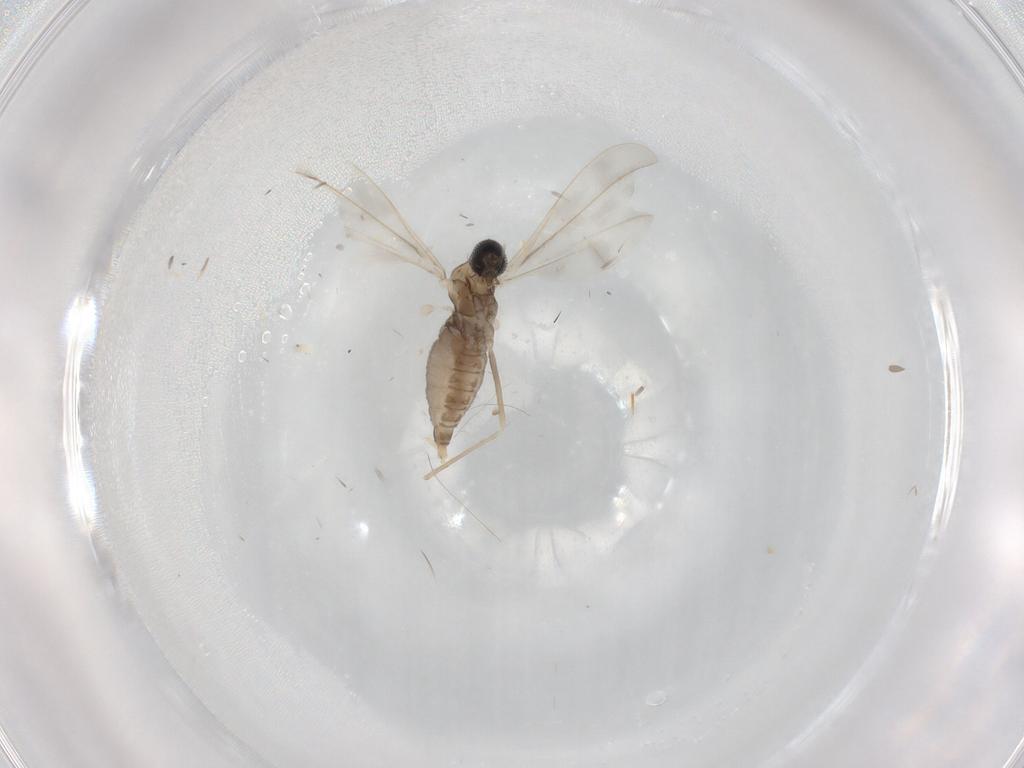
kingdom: Animalia
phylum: Arthropoda
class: Insecta
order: Diptera
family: Cecidomyiidae
